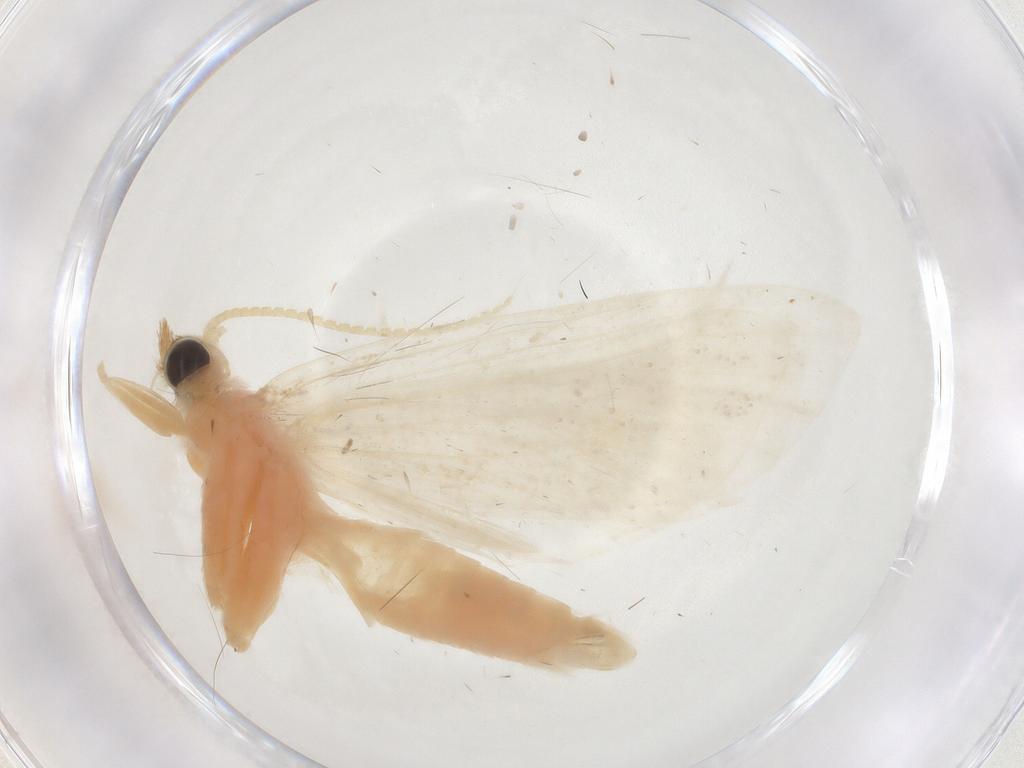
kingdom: Animalia
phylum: Arthropoda
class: Insecta
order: Lepidoptera
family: Crambidae
